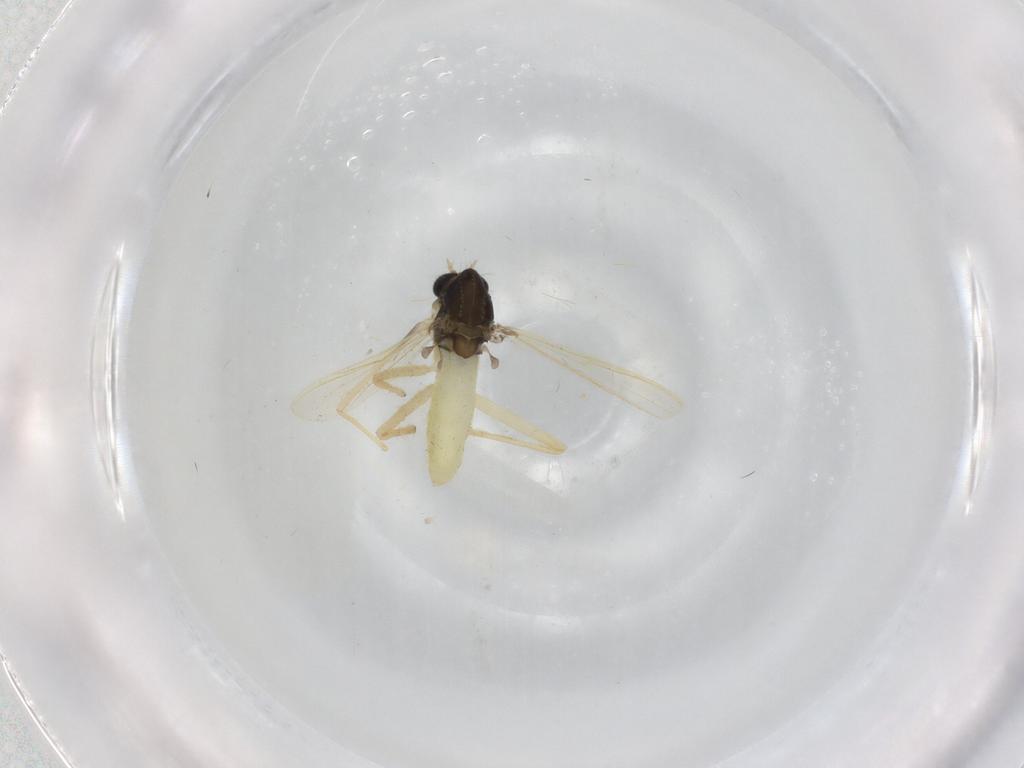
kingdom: Animalia
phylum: Arthropoda
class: Insecta
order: Diptera
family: Chironomidae
